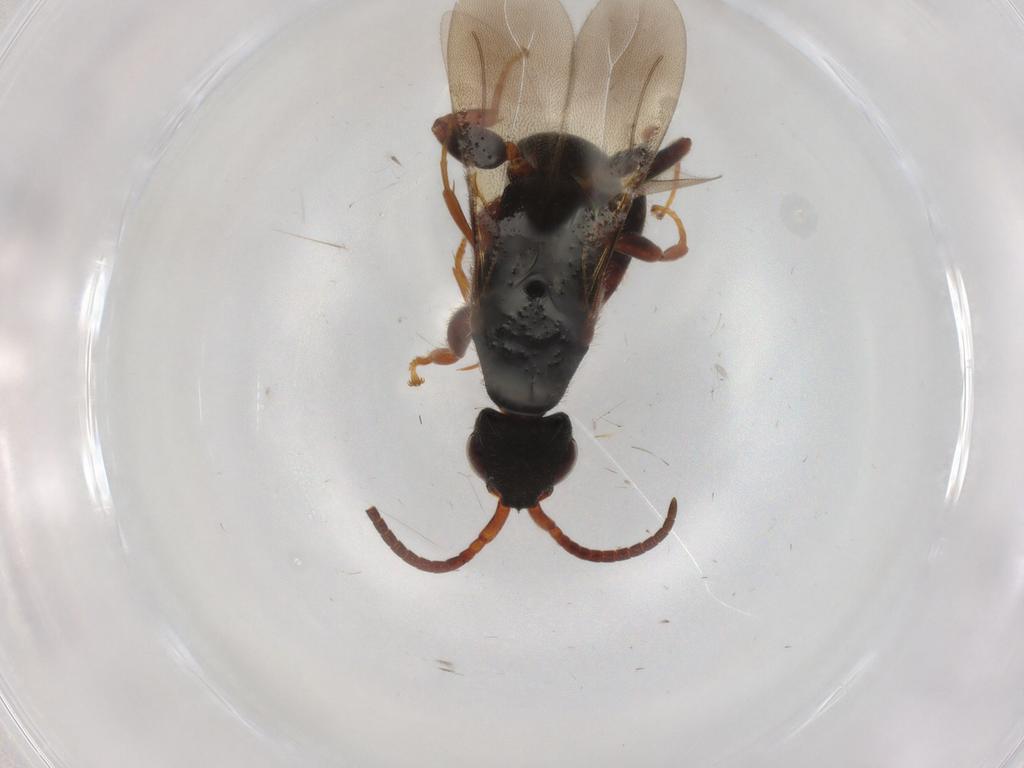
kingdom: Animalia
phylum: Arthropoda
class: Insecta
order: Hymenoptera
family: Bethylidae
